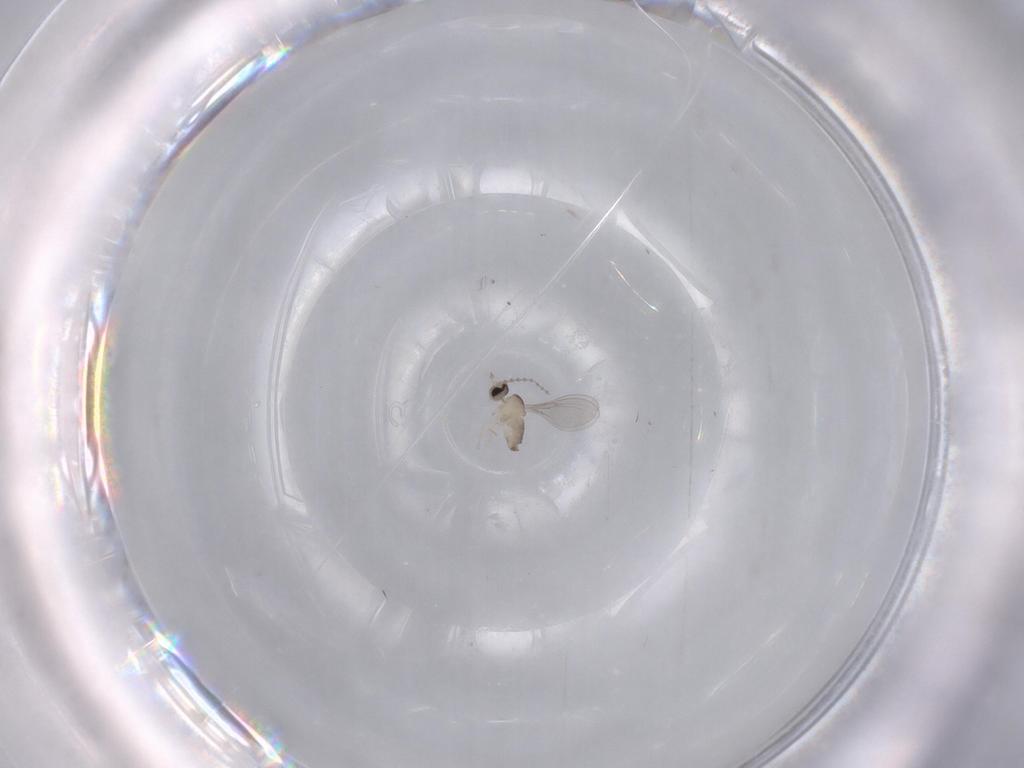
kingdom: Animalia
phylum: Arthropoda
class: Insecta
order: Diptera
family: Cecidomyiidae
